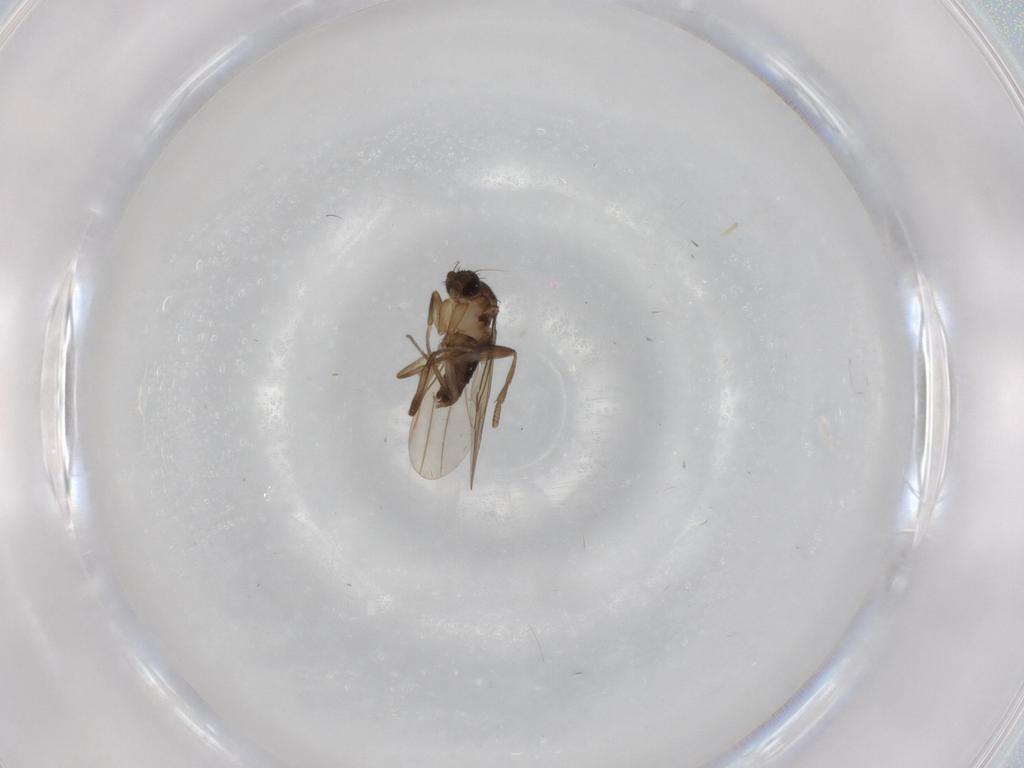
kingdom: Animalia
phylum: Arthropoda
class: Insecta
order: Diptera
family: Phoridae
